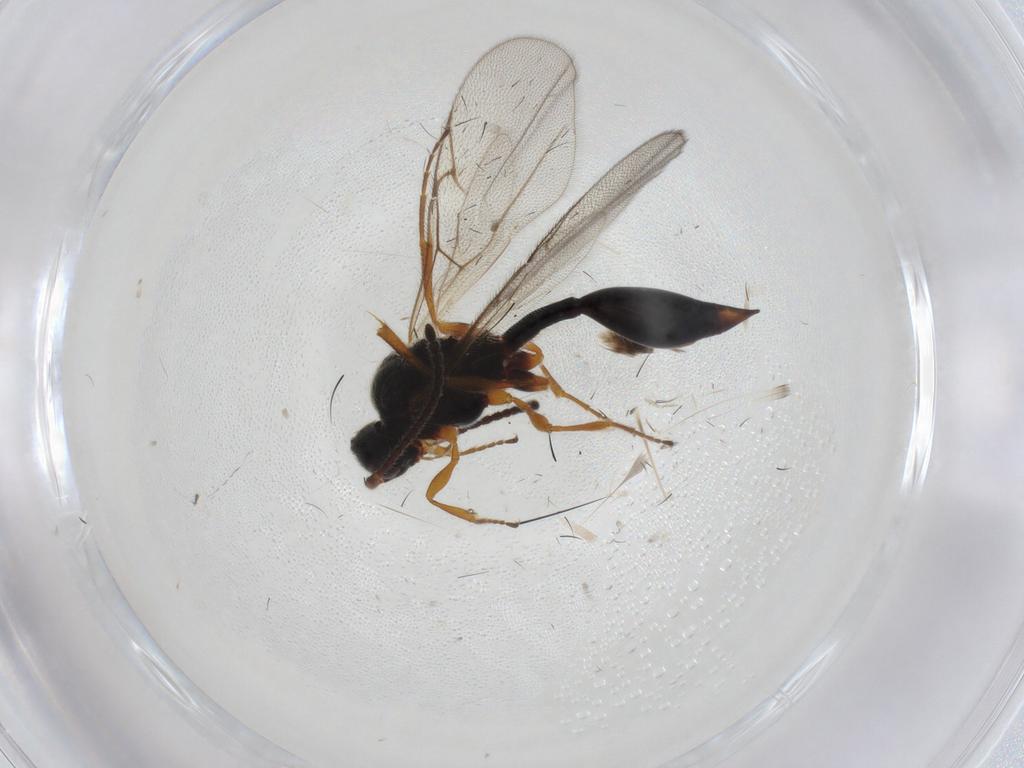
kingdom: Animalia
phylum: Arthropoda
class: Insecta
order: Hymenoptera
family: Diapriidae
